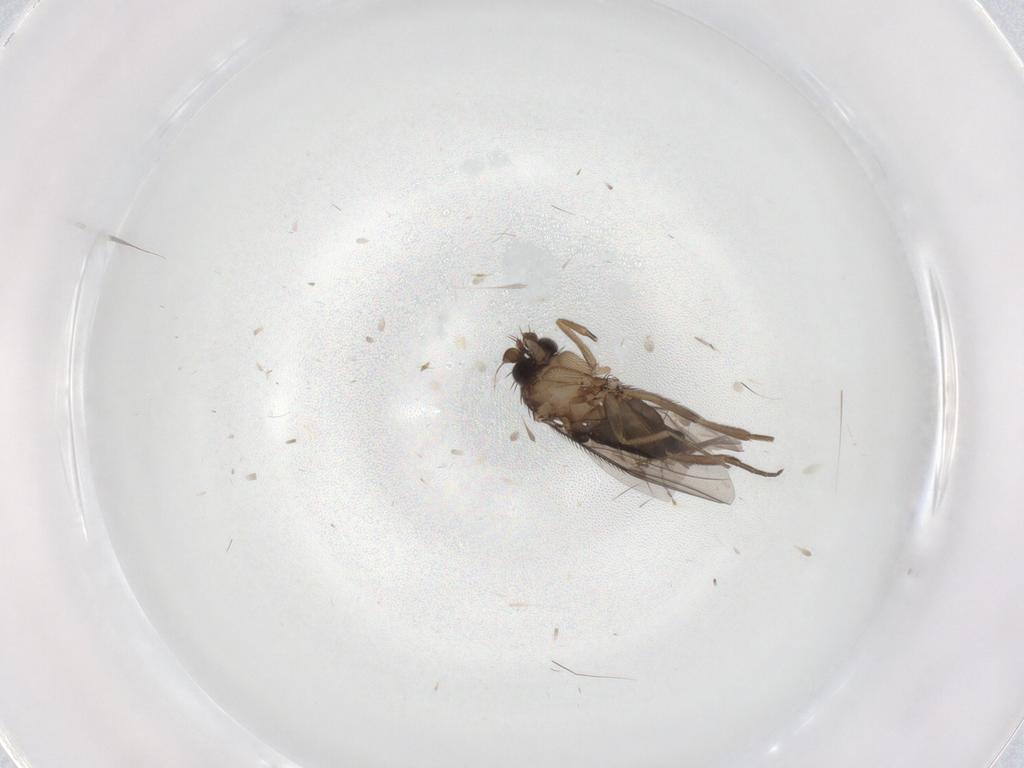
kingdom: Animalia
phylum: Arthropoda
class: Insecta
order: Diptera
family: Phoridae
